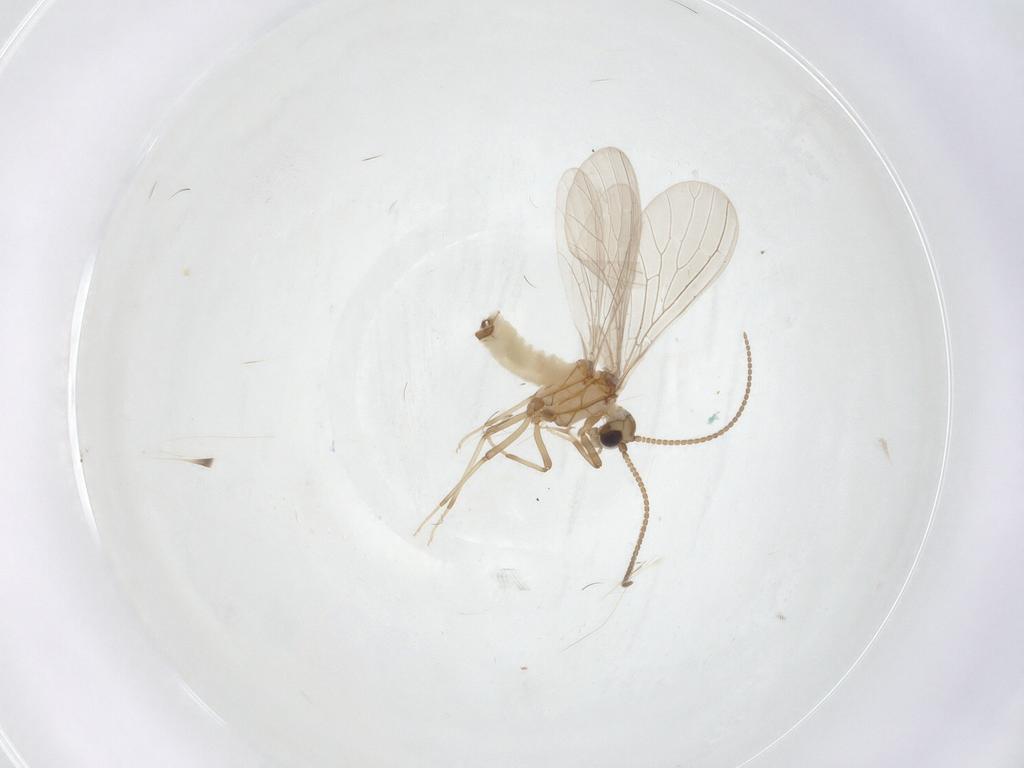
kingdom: Animalia
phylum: Arthropoda
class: Insecta
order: Neuroptera
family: Coniopterygidae
